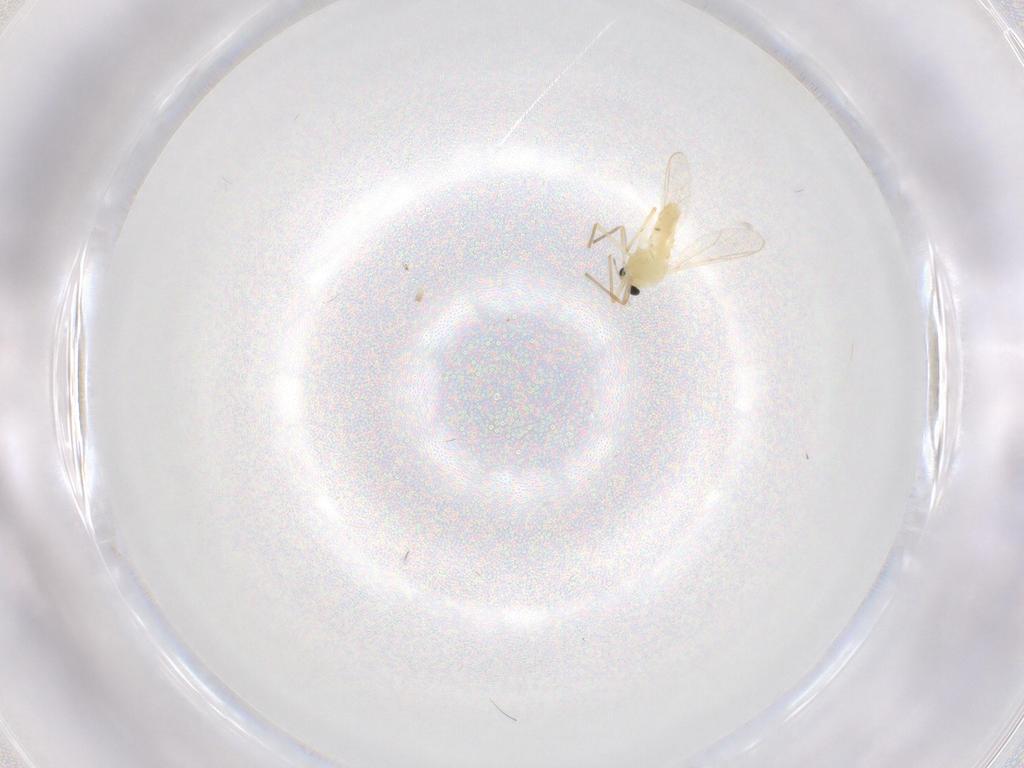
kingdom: Animalia
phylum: Arthropoda
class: Insecta
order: Diptera
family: Chironomidae
